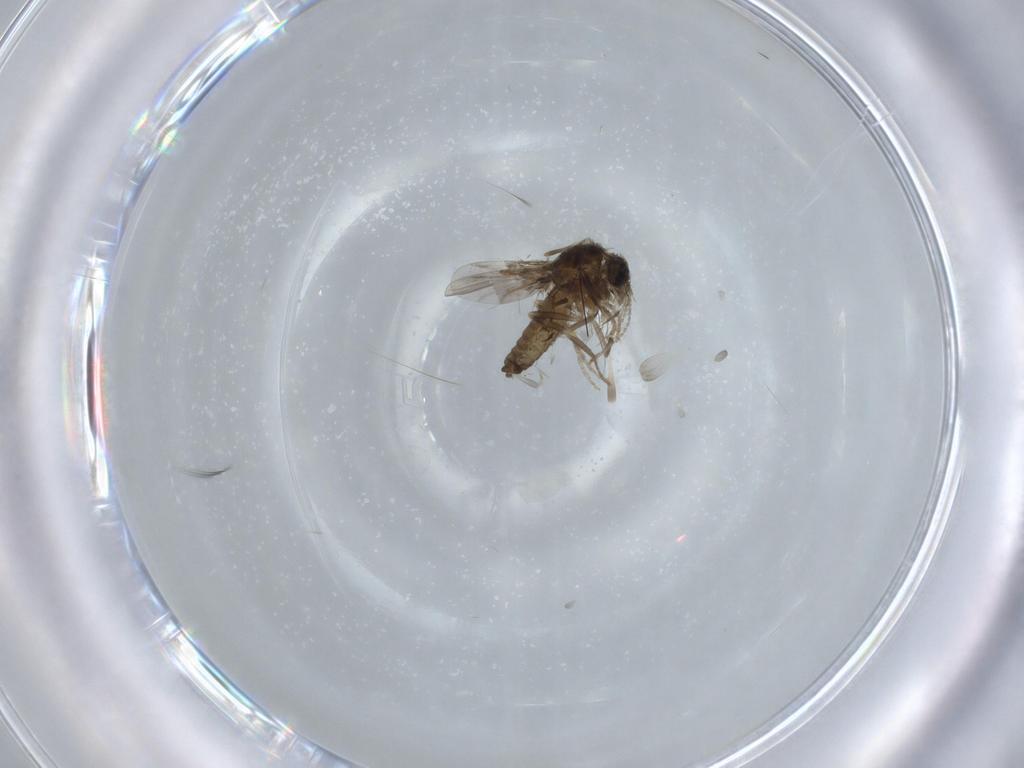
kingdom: Animalia
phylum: Arthropoda
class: Insecta
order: Diptera
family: Ceratopogonidae
